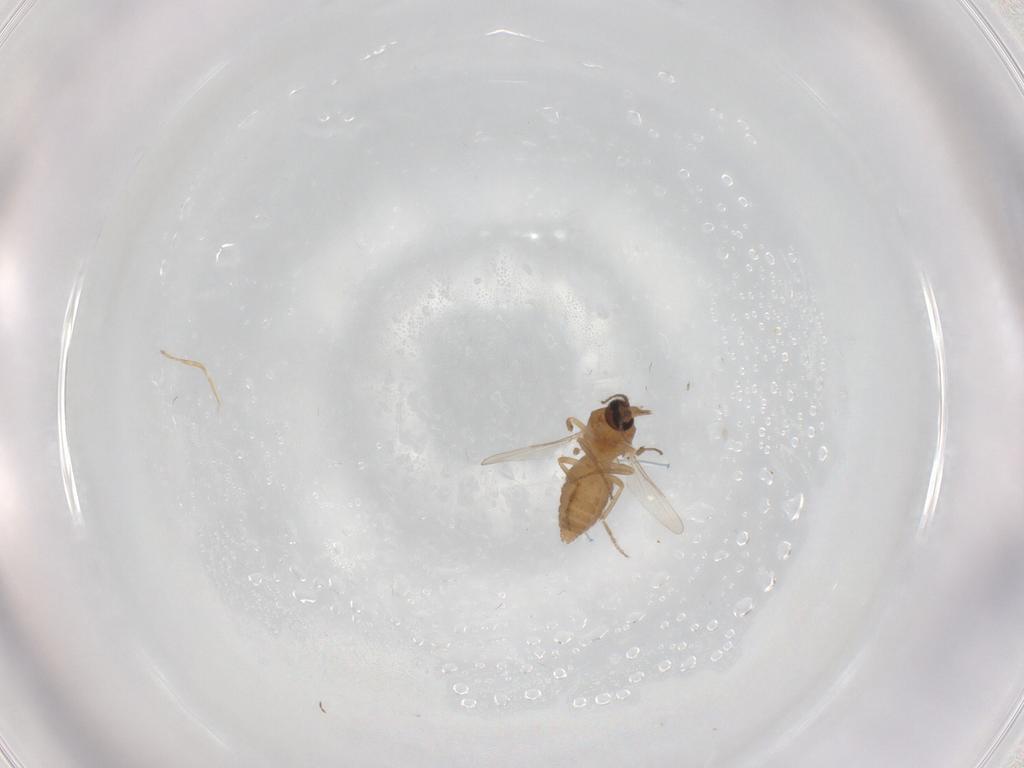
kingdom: Animalia
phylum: Arthropoda
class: Insecta
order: Diptera
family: Ceratopogonidae
